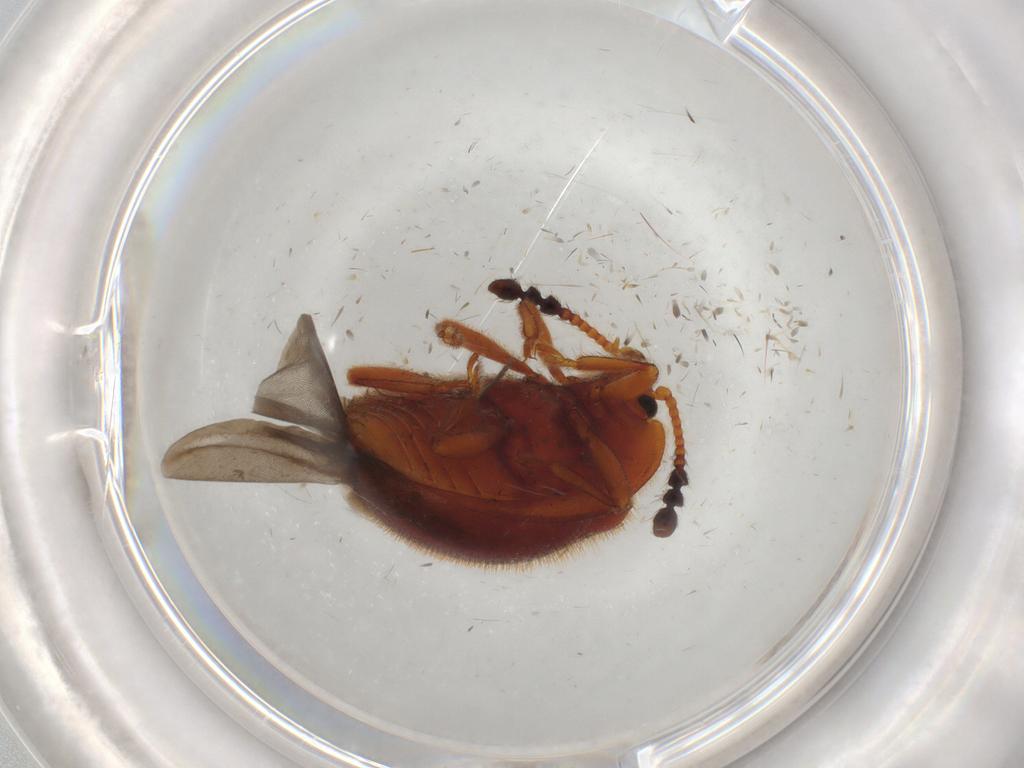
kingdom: Animalia
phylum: Arthropoda
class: Insecta
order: Coleoptera
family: Endomychidae
